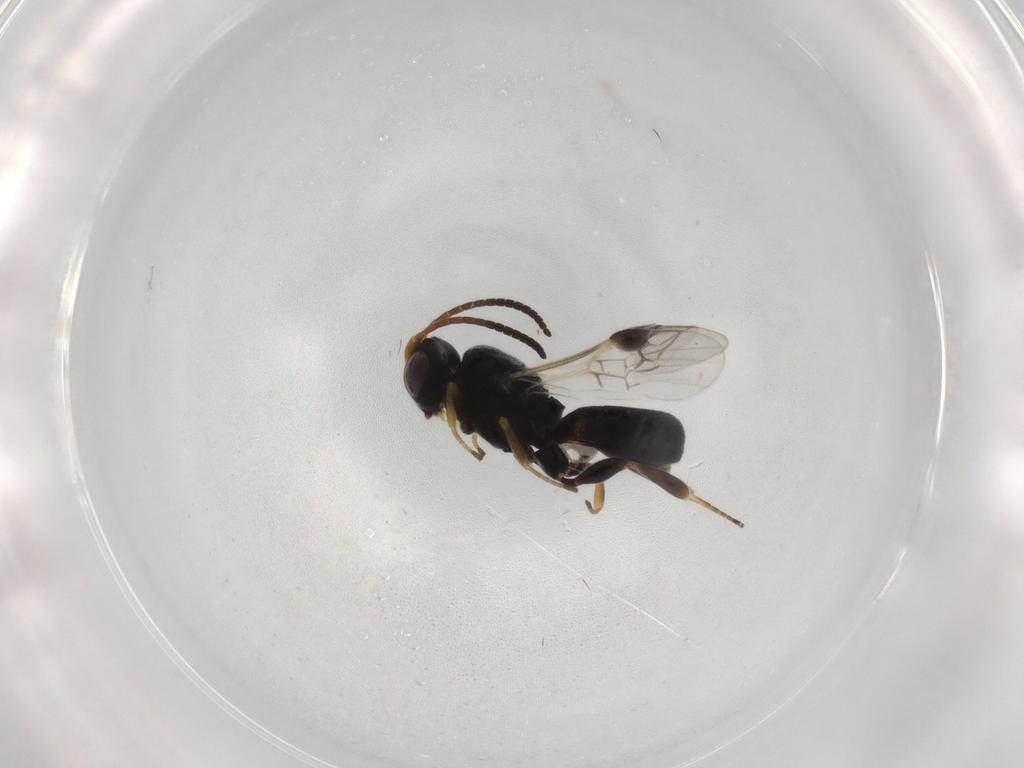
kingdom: Animalia
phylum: Arthropoda
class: Insecta
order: Hymenoptera
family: Braconidae
